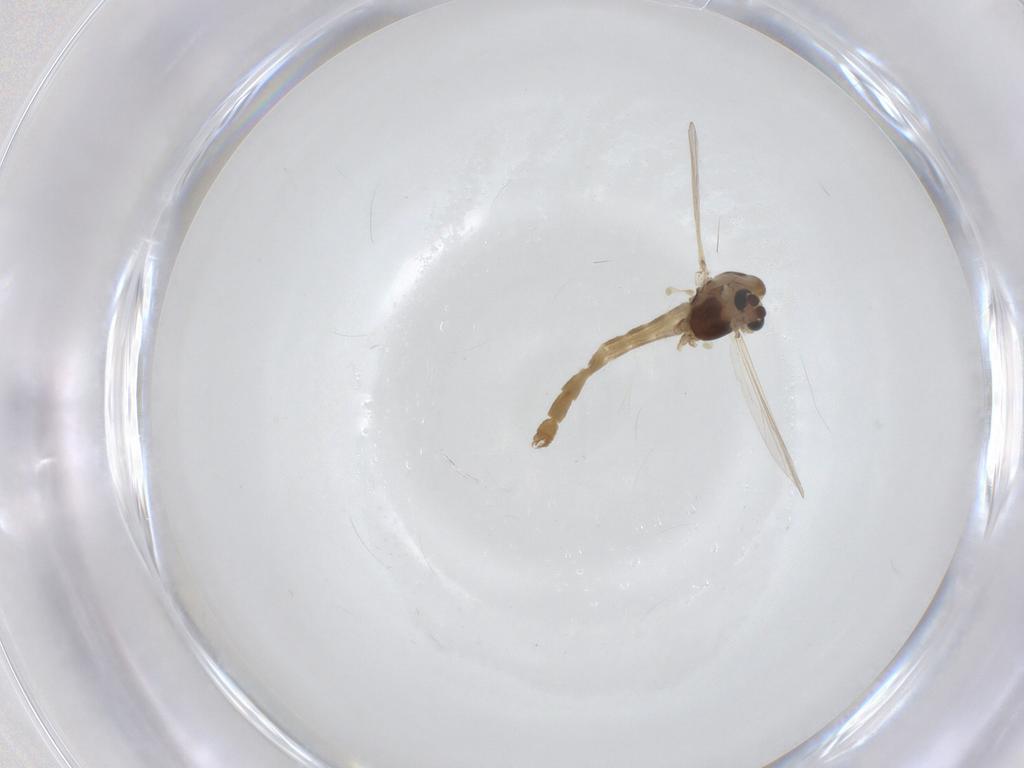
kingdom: Animalia
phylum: Arthropoda
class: Insecta
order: Diptera
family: Chironomidae
